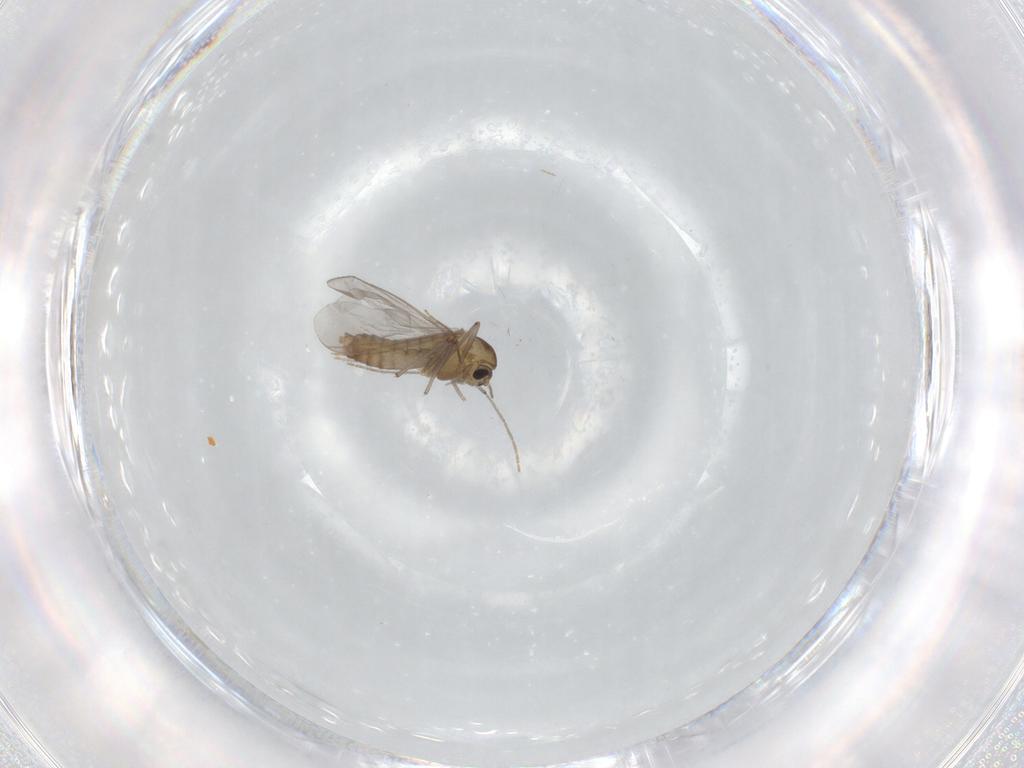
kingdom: Animalia
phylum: Arthropoda
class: Insecta
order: Diptera
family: Chironomidae
